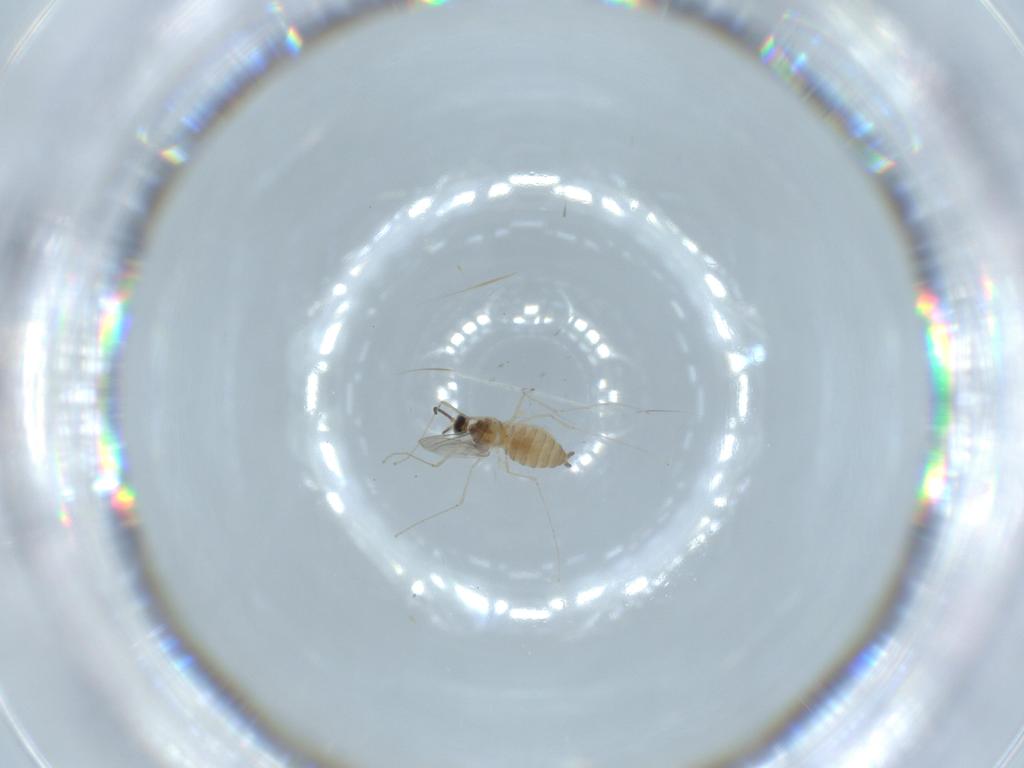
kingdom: Animalia
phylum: Arthropoda
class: Insecta
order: Diptera
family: Cecidomyiidae
